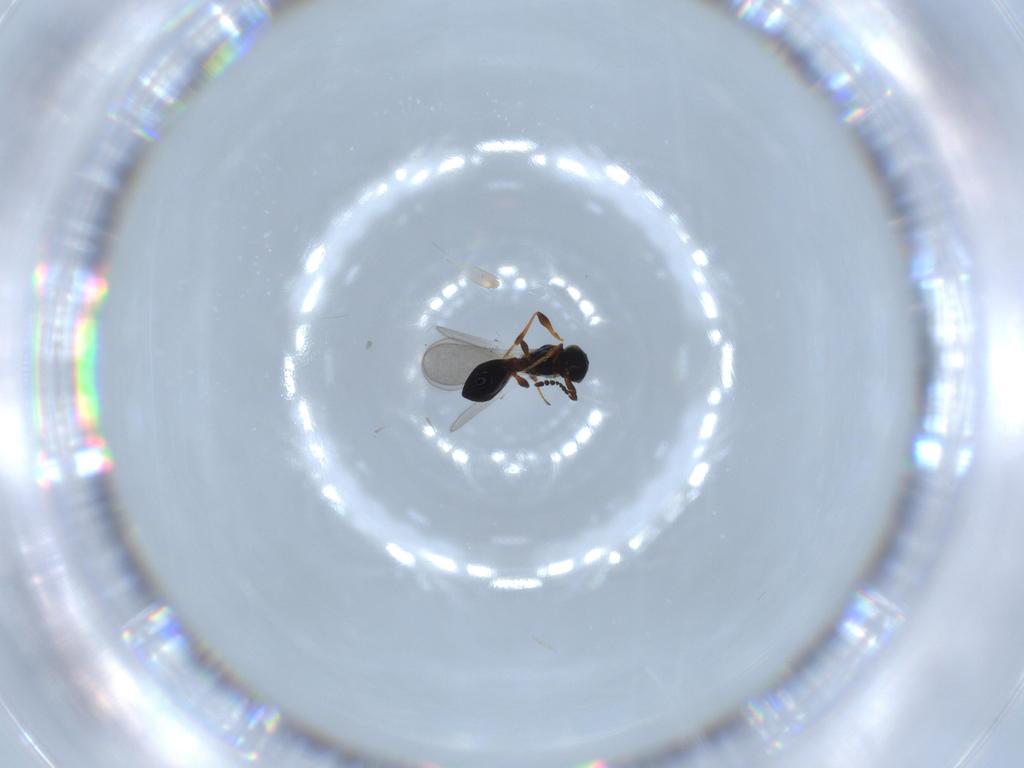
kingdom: Animalia
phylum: Arthropoda
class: Insecta
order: Hymenoptera
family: Platygastridae
